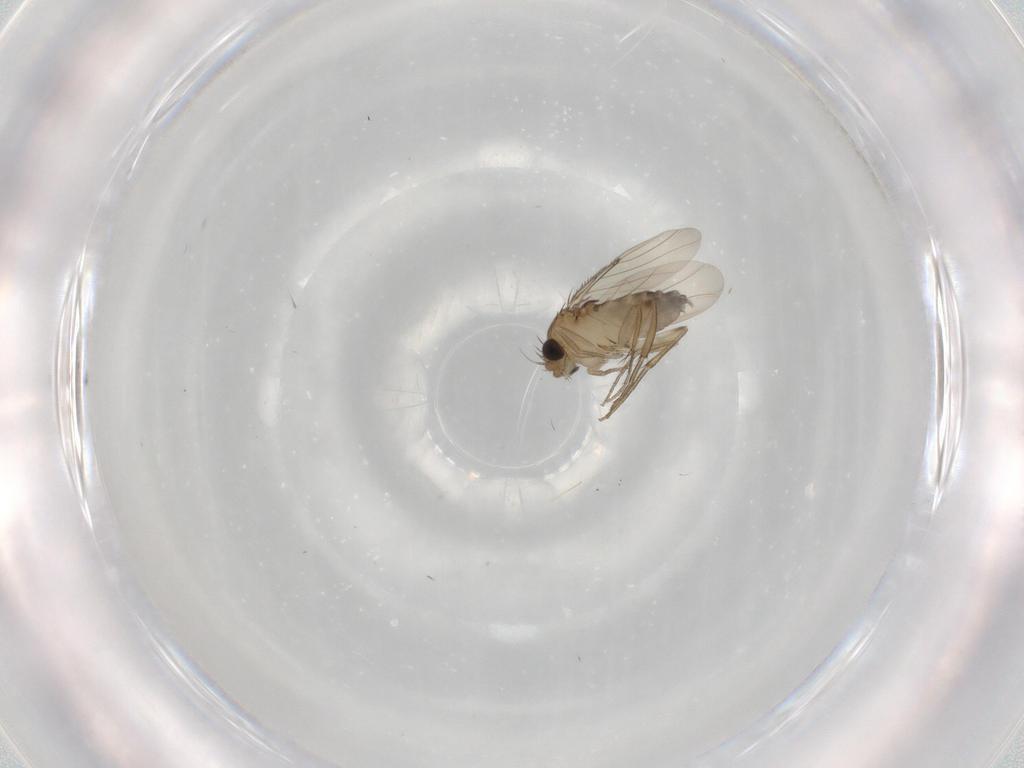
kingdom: Animalia
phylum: Arthropoda
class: Insecta
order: Diptera
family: Phoridae
